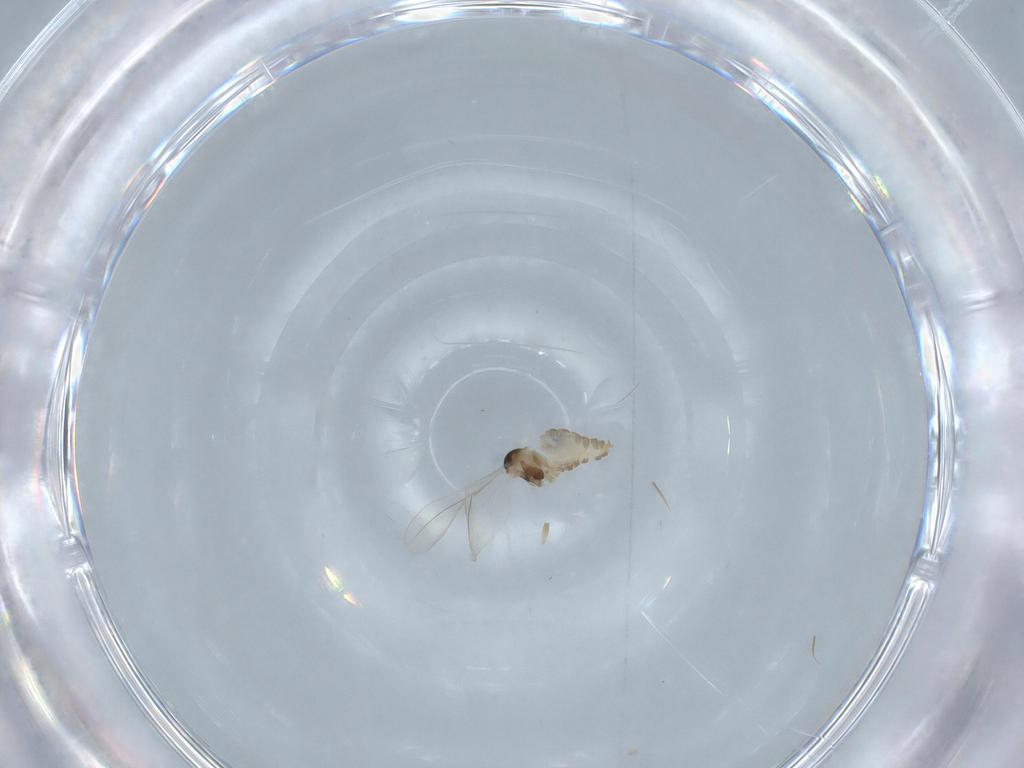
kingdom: Animalia
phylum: Arthropoda
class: Insecta
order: Diptera
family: Cecidomyiidae
